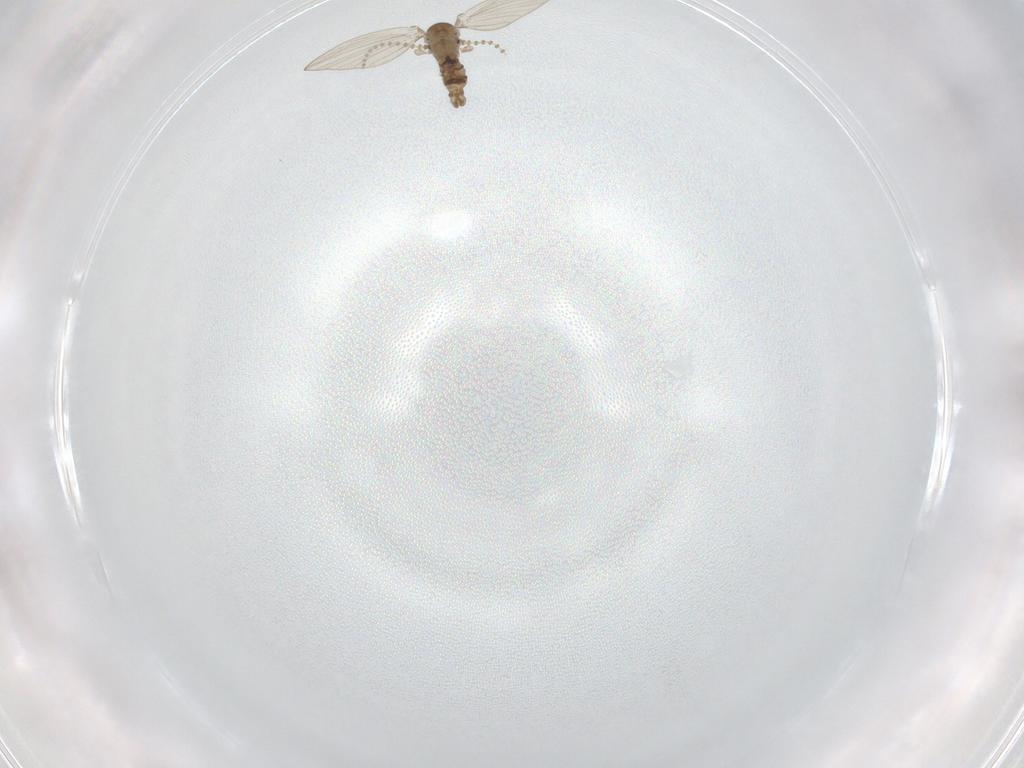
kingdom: Animalia
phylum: Arthropoda
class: Insecta
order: Diptera
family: Psychodidae
